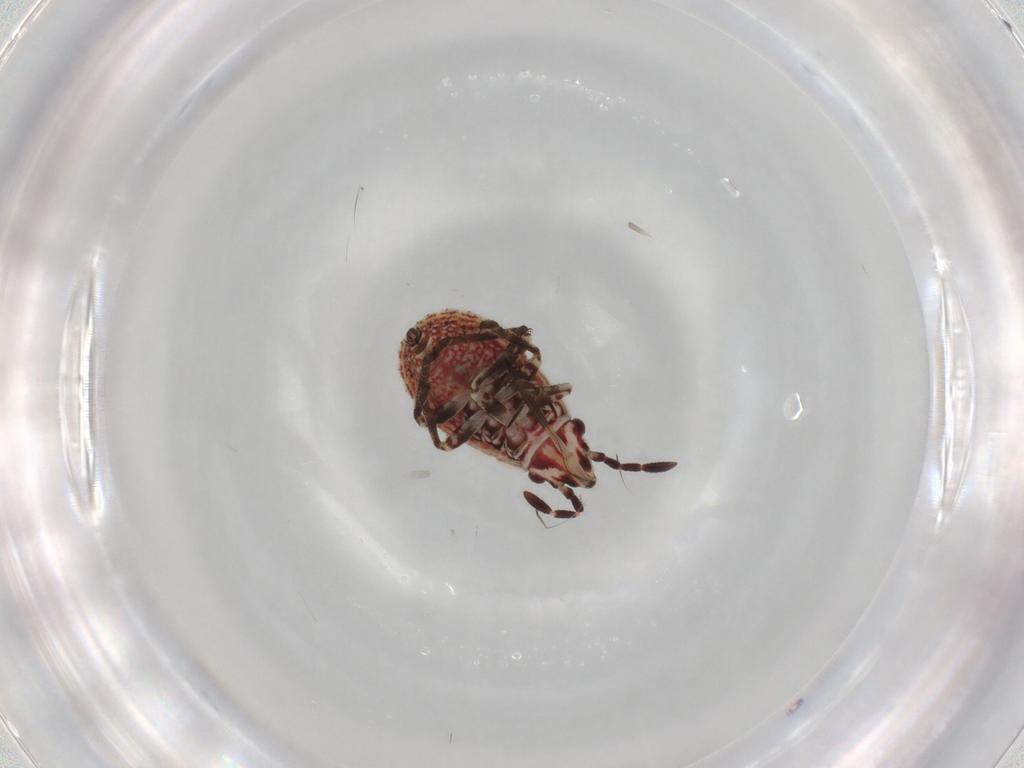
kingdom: Animalia
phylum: Arthropoda
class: Insecta
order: Hemiptera
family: Lygaeidae
